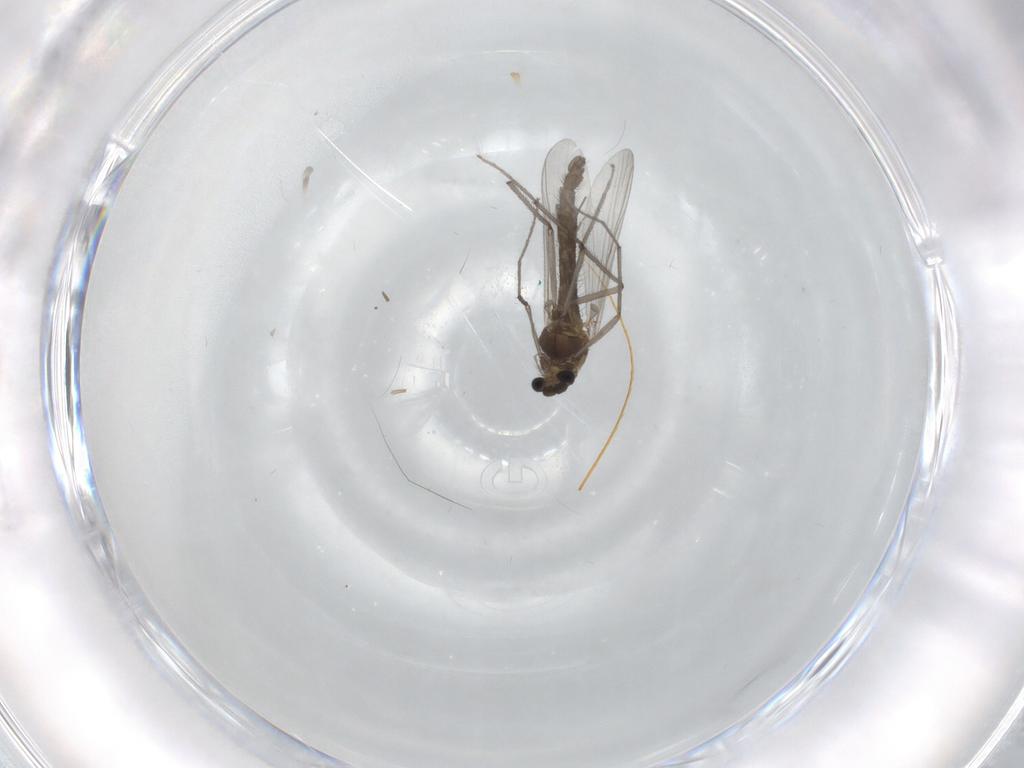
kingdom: Animalia
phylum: Arthropoda
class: Insecta
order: Diptera
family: Chironomidae
